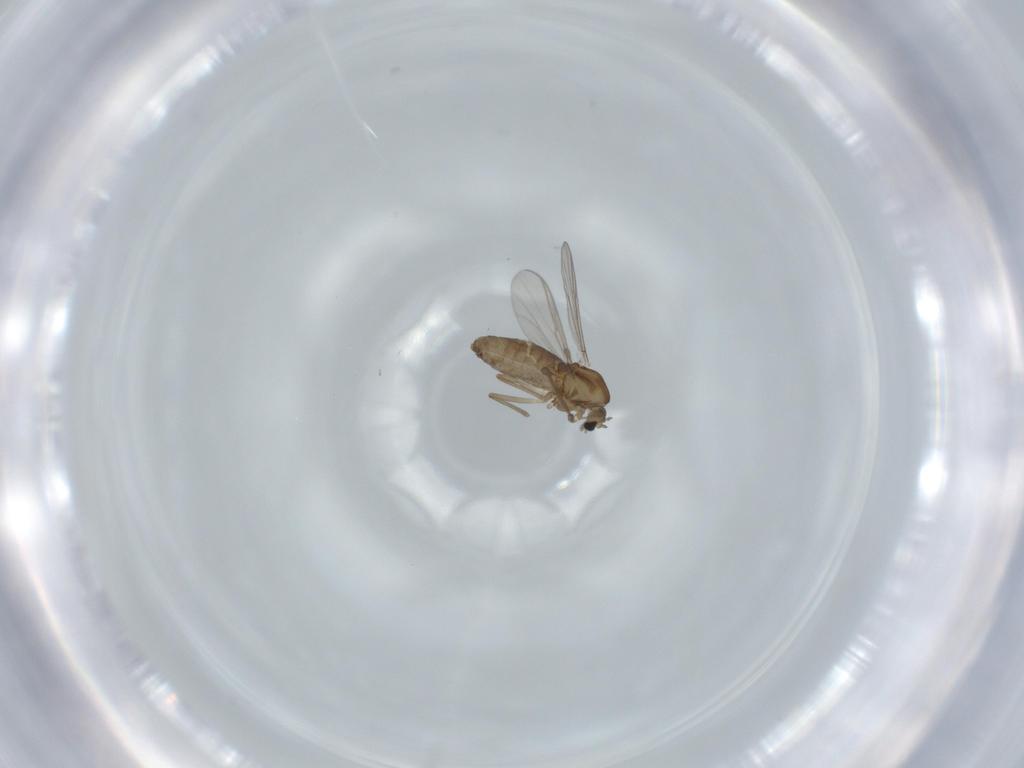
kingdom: Animalia
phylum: Arthropoda
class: Insecta
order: Diptera
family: Chironomidae
